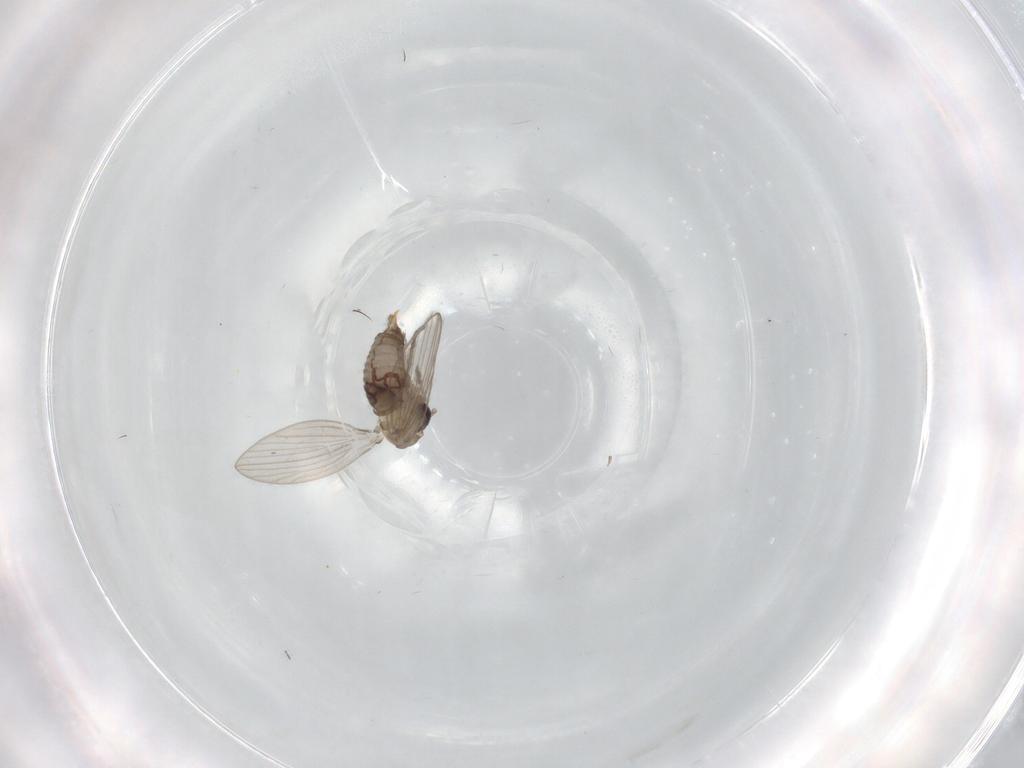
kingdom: Animalia
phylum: Arthropoda
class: Insecta
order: Diptera
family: Psychodidae
